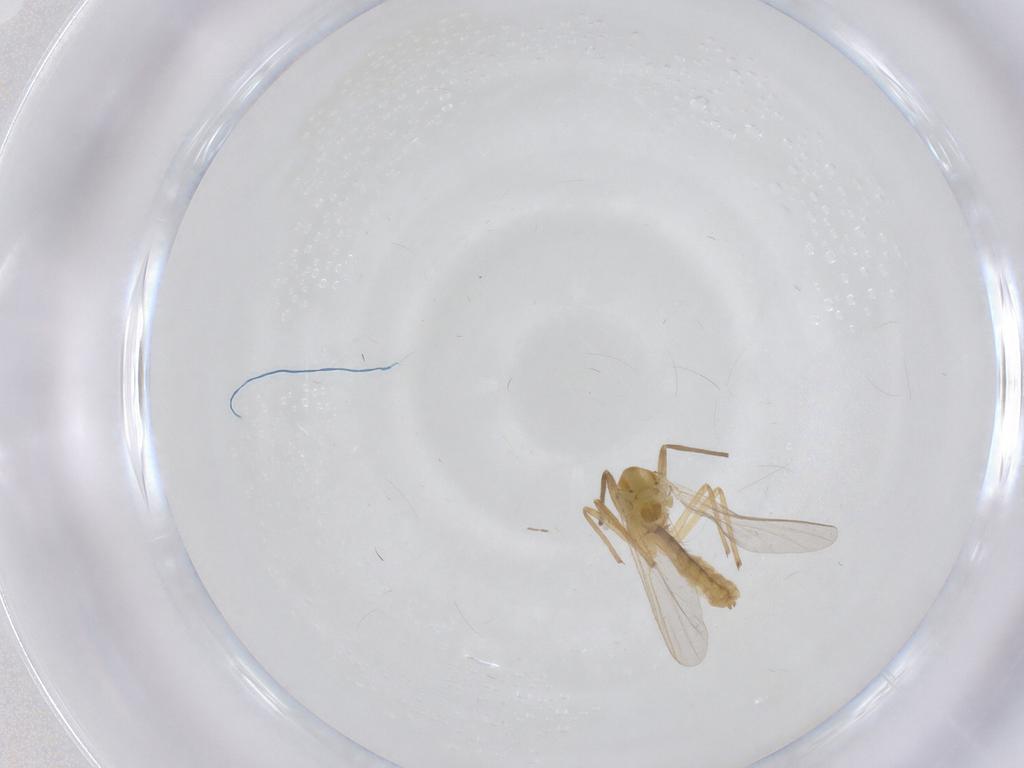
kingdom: Animalia
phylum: Arthropoda
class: Insecta
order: Diptera
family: Chironomidae
